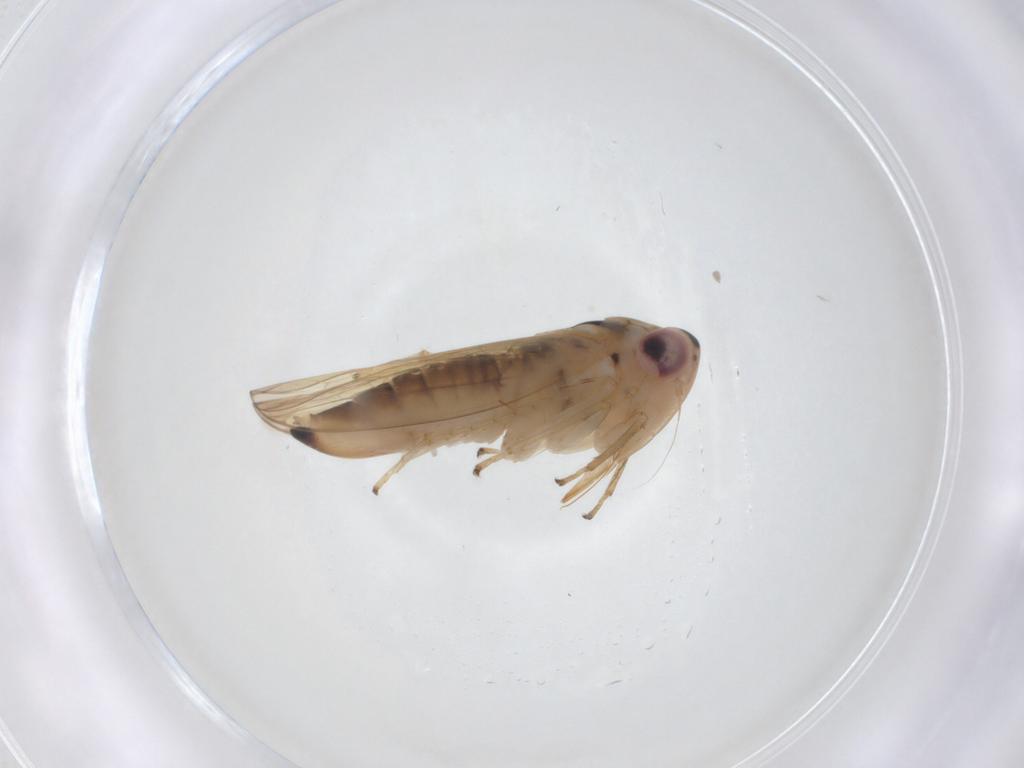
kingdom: Animalia
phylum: Arthropoda
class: Insecta
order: Hemiptera
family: Cicadellidae
